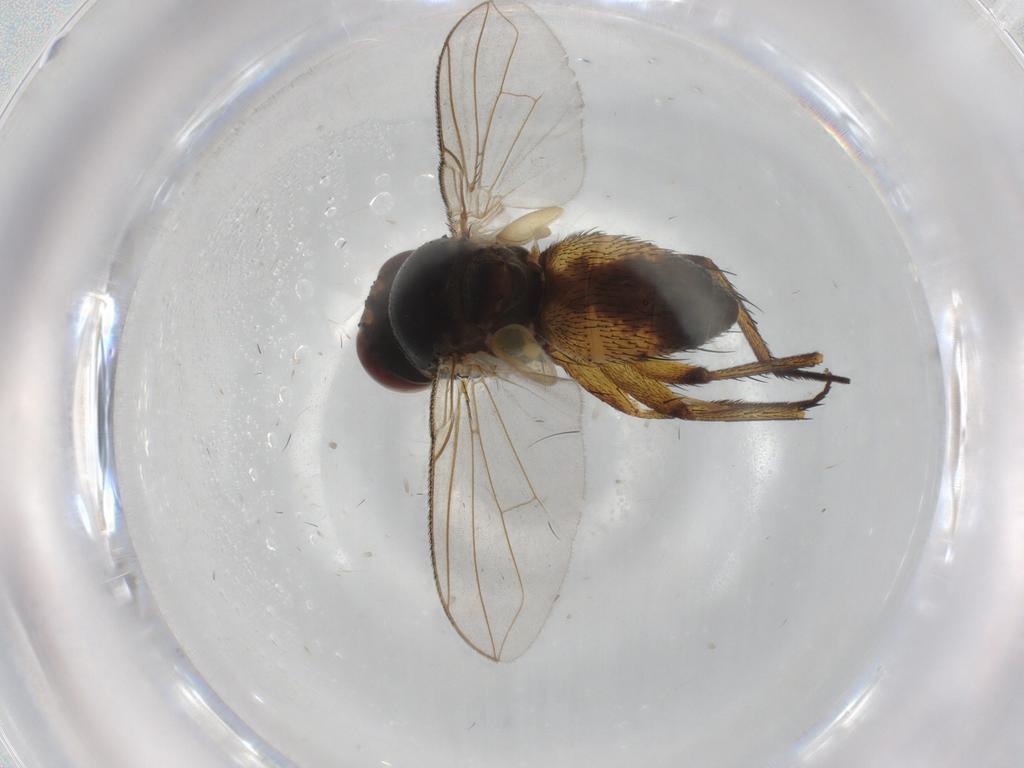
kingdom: Animalia
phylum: Arthropoda
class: Insecta
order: Diptera
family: Tachinidae
